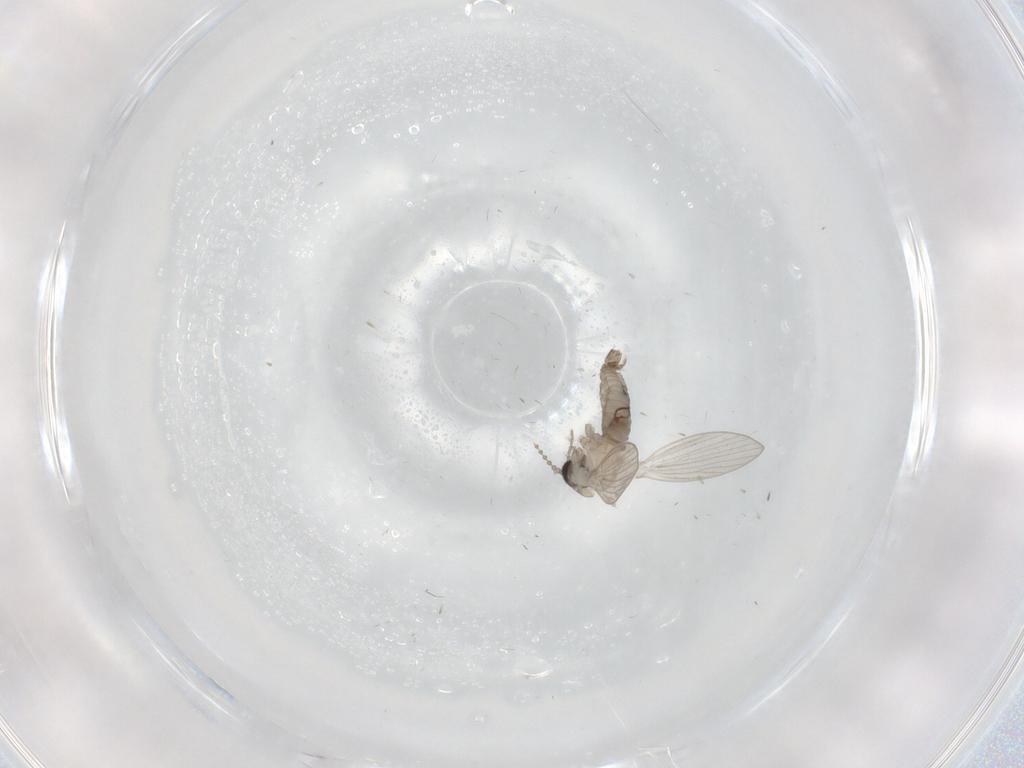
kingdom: Animalia
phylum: Arthropoda
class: Insecta
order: Diptera
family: Psychodidae
